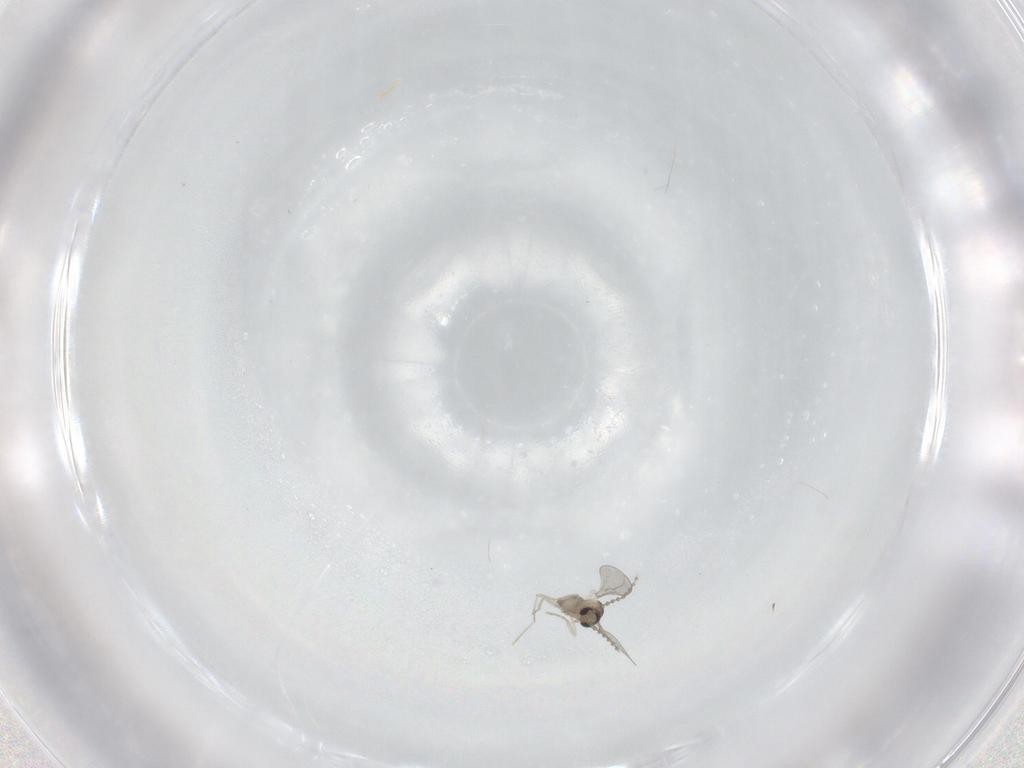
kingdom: Animalia
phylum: Arthropoda
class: Insecta
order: Diptera
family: Cecidomyiidae
